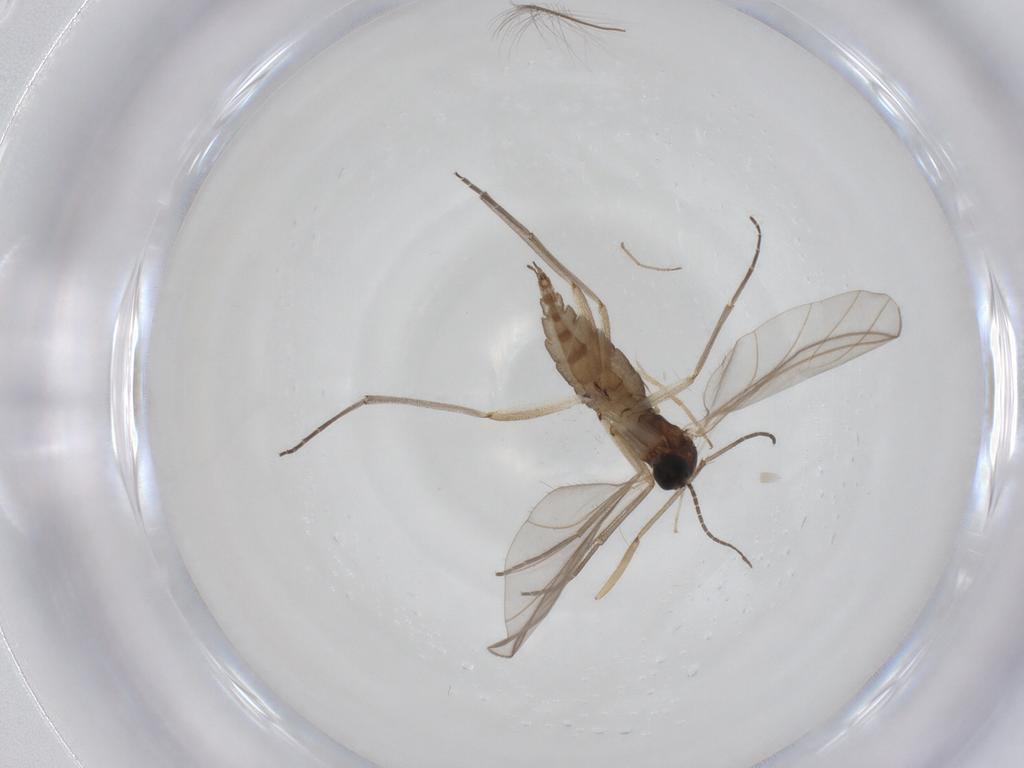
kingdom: Animalia
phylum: Arthropoda
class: Insecta
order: Diptera
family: Sciaridae
